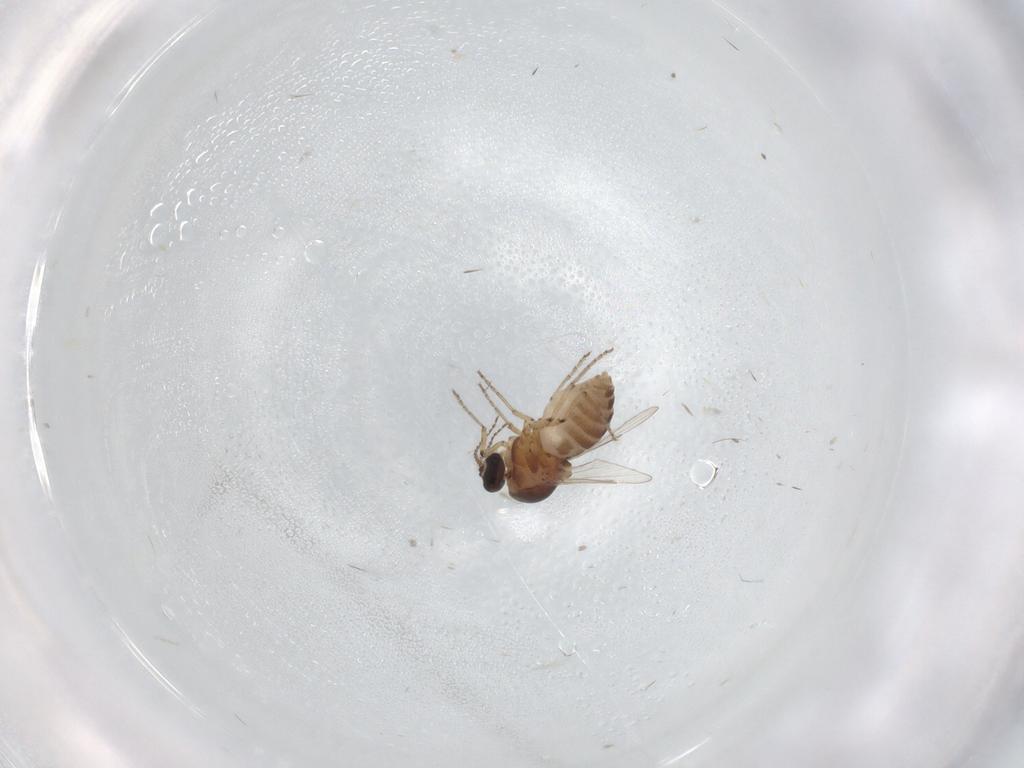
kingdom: Animalia
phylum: Arthropoda
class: Insecta
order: Diptera
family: Ceratopogonidae
